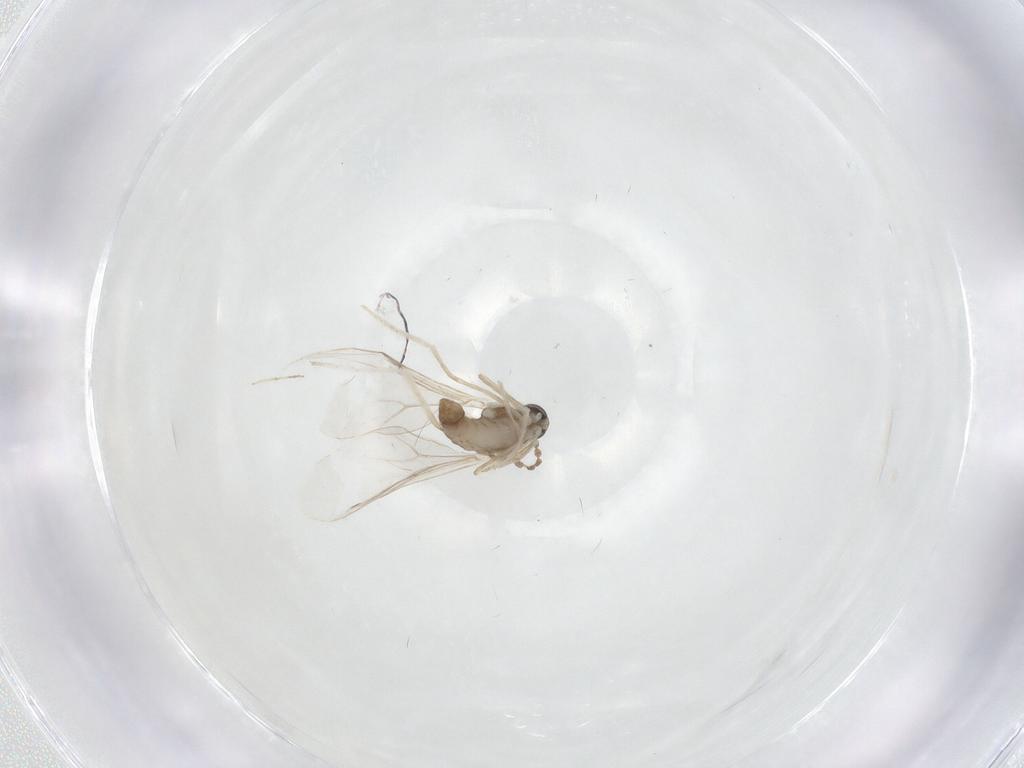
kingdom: Animalia
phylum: Arthropoda
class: Insecta
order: Diptera
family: Cecidomyiidae
